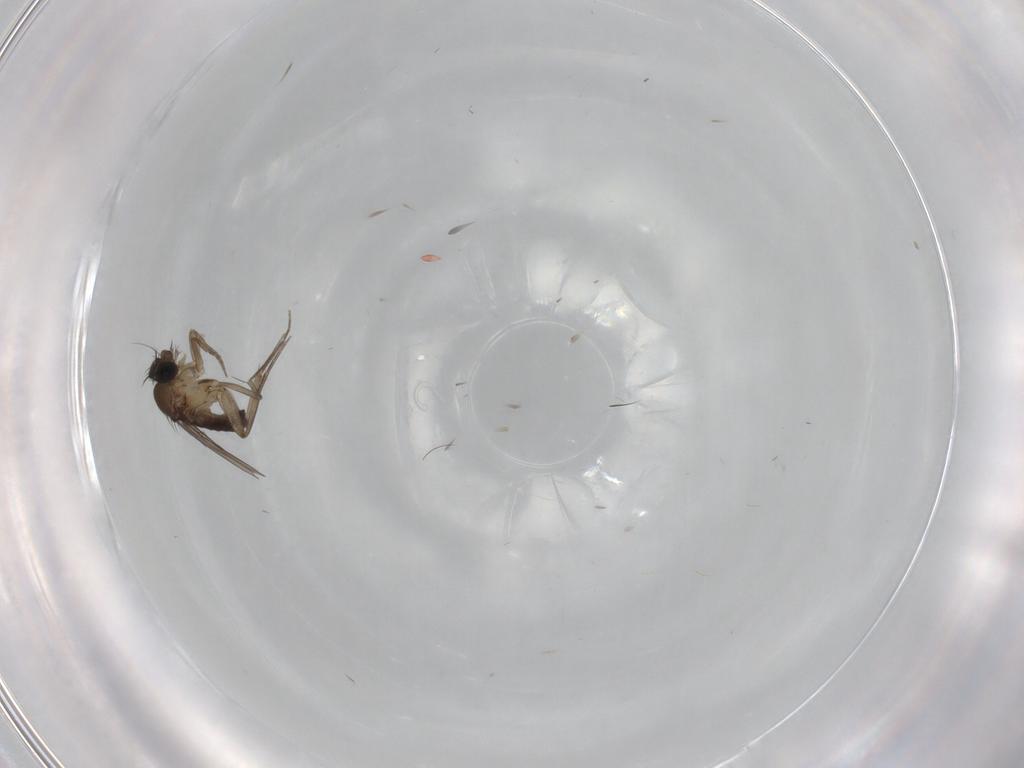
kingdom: Animalia
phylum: Arthropoda
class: Insecta
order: Diptera
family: Phoridae
